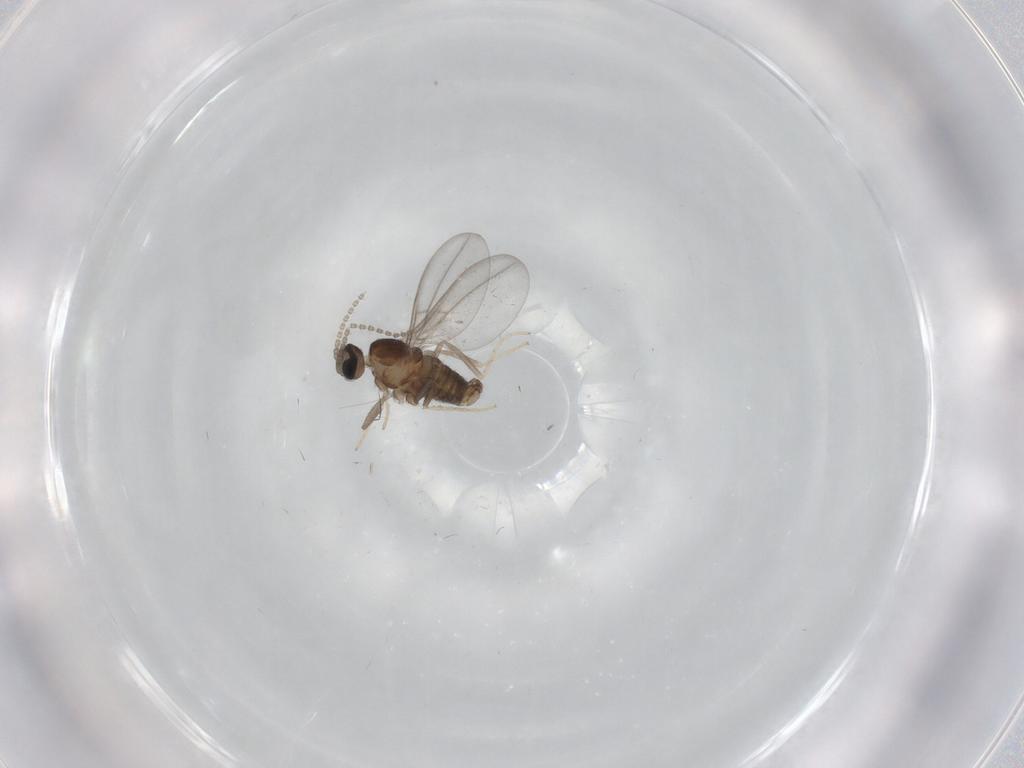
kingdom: Animalia
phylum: Arthropoda
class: Insecta
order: Diptera
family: Cecidomyiidae
